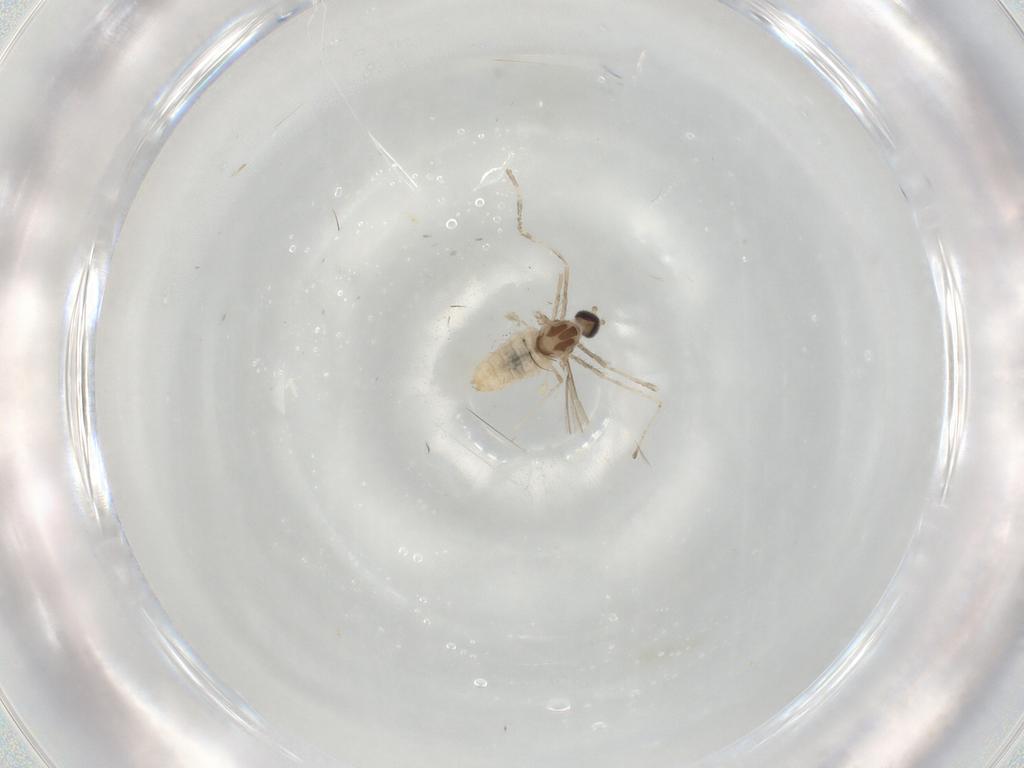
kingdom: Animalia
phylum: Arthropoda
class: Insecta
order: Diptera
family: Cecidomyiidae
